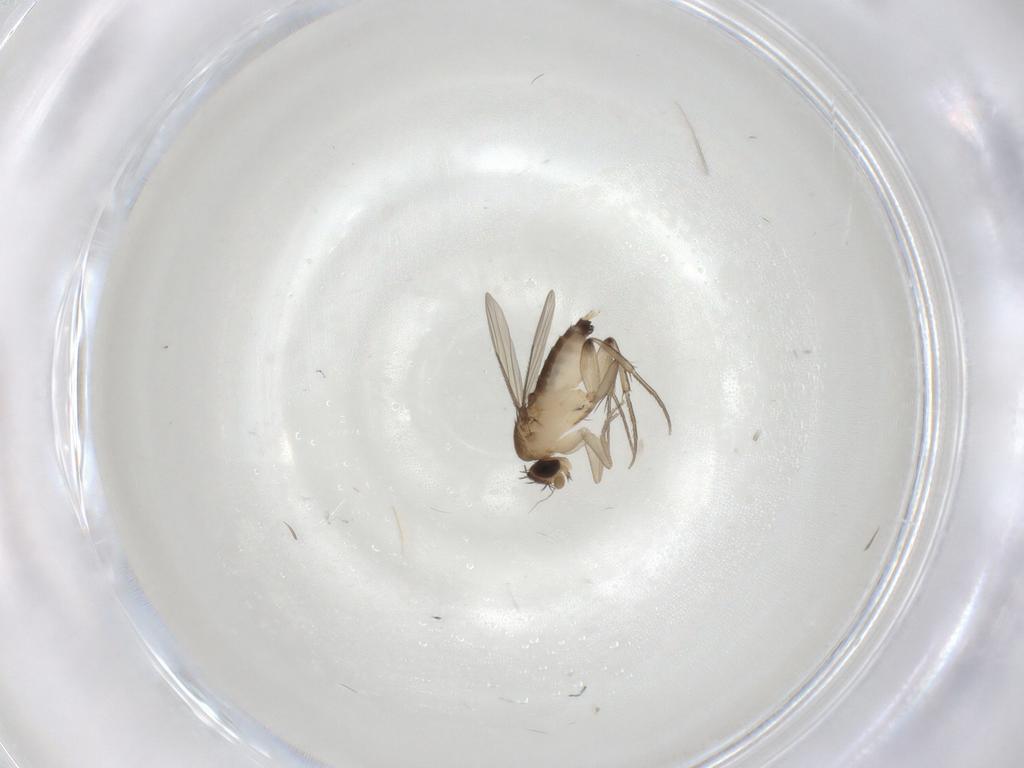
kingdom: Animalia
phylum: Arthropoda
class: Insecta
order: Diptera
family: Phoridae
